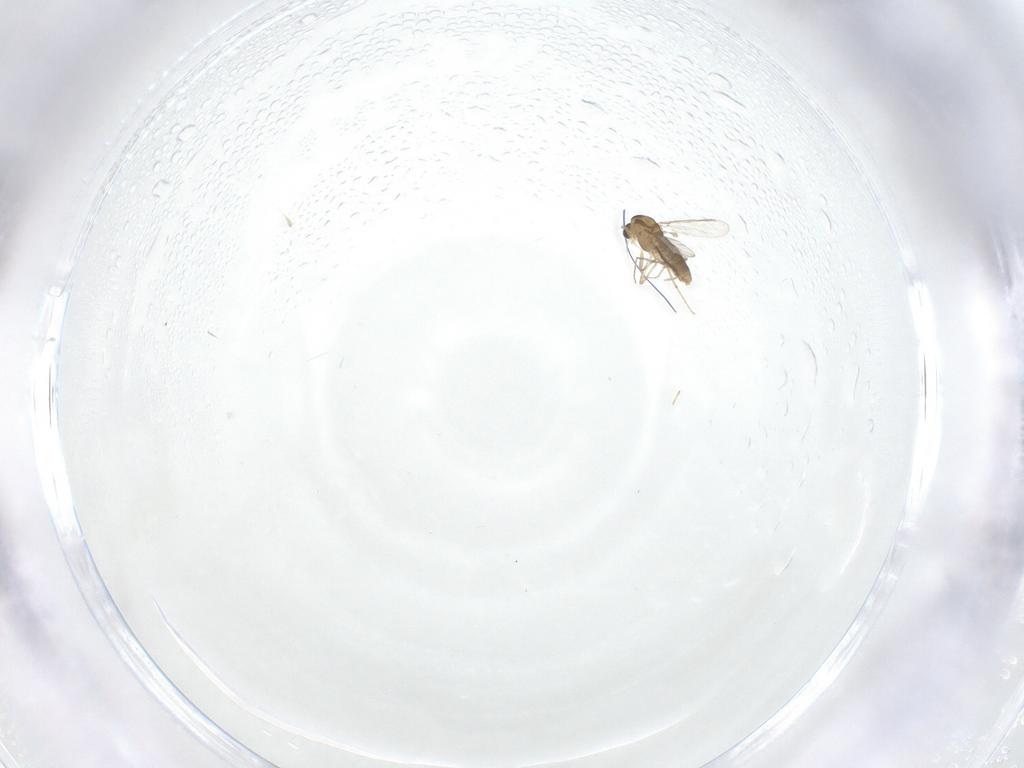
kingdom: Animalia
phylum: Arthropoda
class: Insecta
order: Diptera
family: Chironomidae
